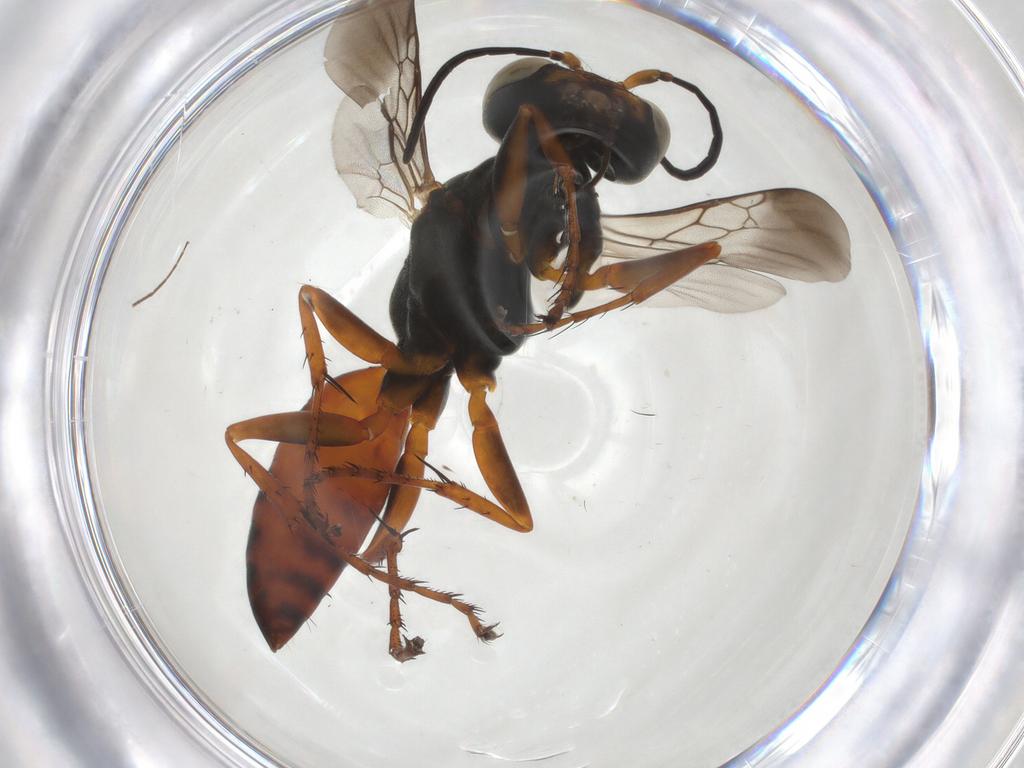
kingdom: Animalia
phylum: Arthropoda
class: Insecta
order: Hymenoptera
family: Crabronidae
